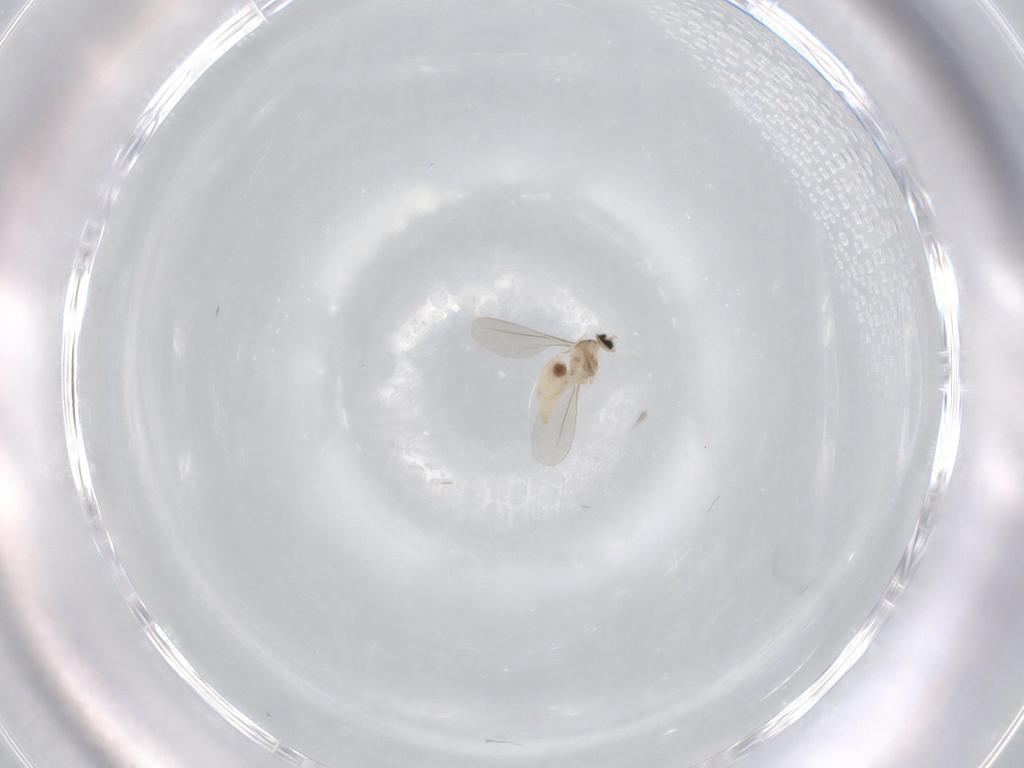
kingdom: Animalia
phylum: Arthropoda
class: Insecta
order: Diptera
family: Cecidomyiidae
